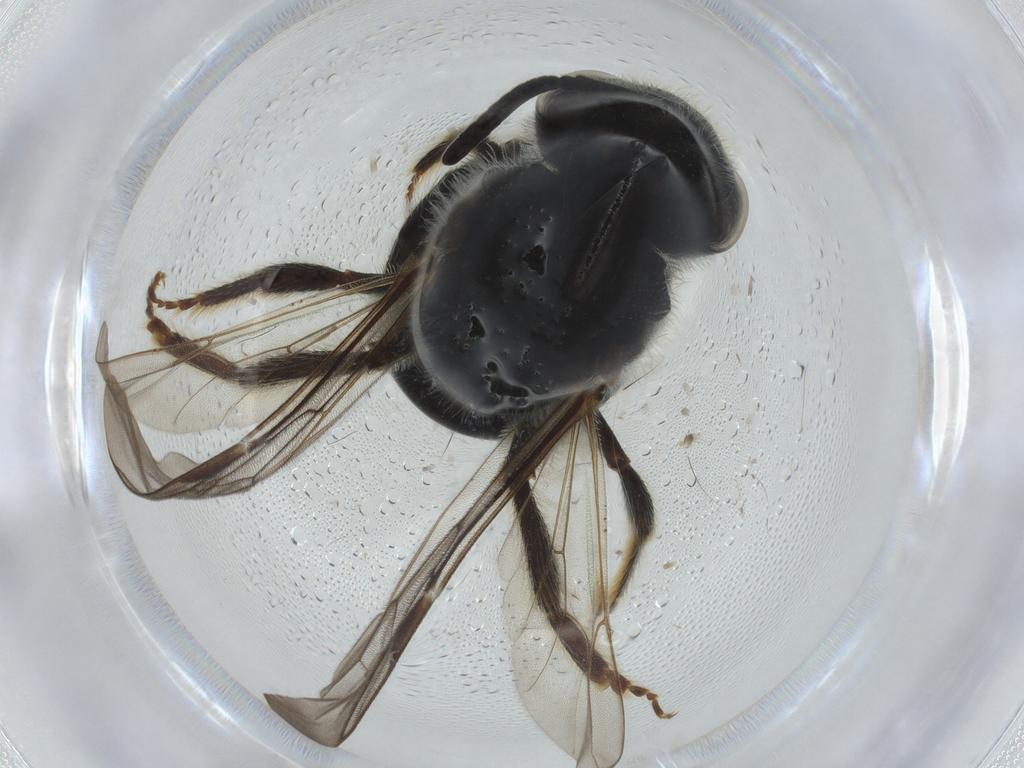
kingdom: Animalia
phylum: Arthropoda
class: Insecta
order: Hymenoptera
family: Halictidae
